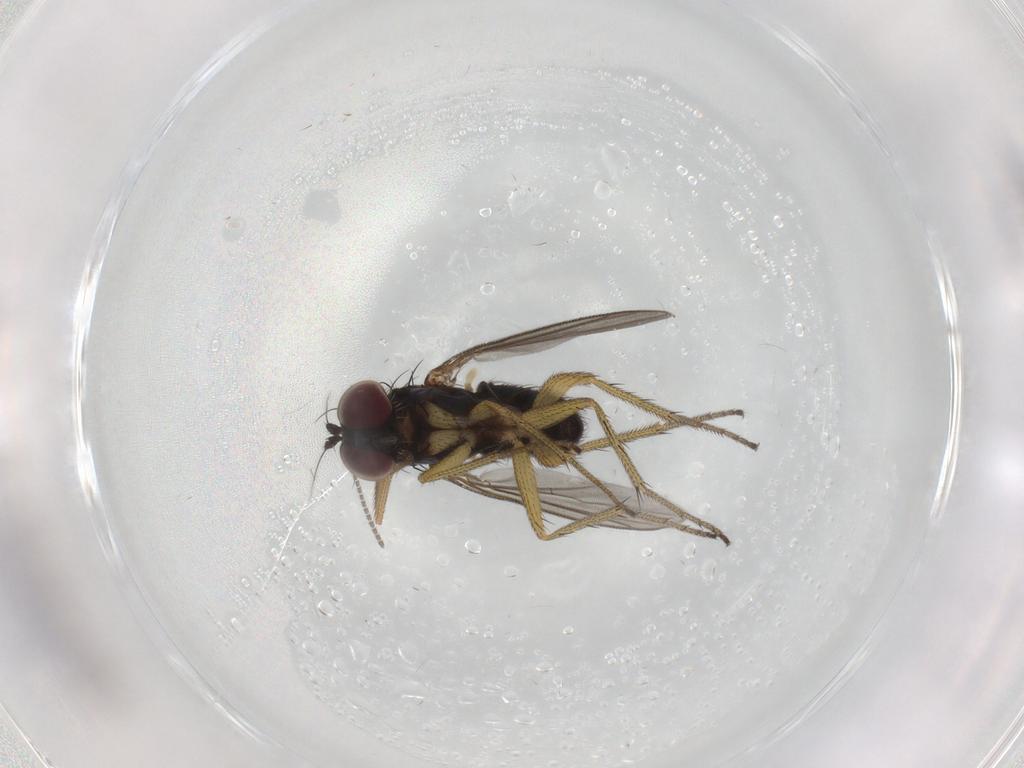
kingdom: Animalia
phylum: Arthropoda
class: Insecta
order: Diptera
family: Dolichopodidae
